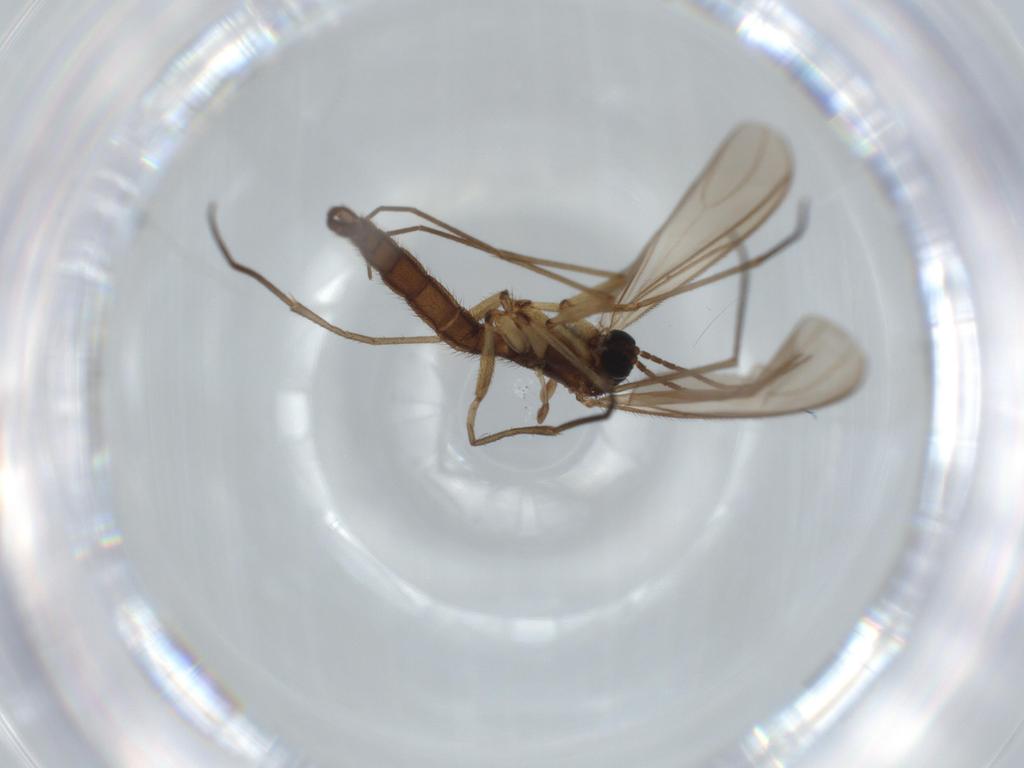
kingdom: Animalia
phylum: Arthropoda
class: Insecta
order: Diptera
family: Sciaridae
